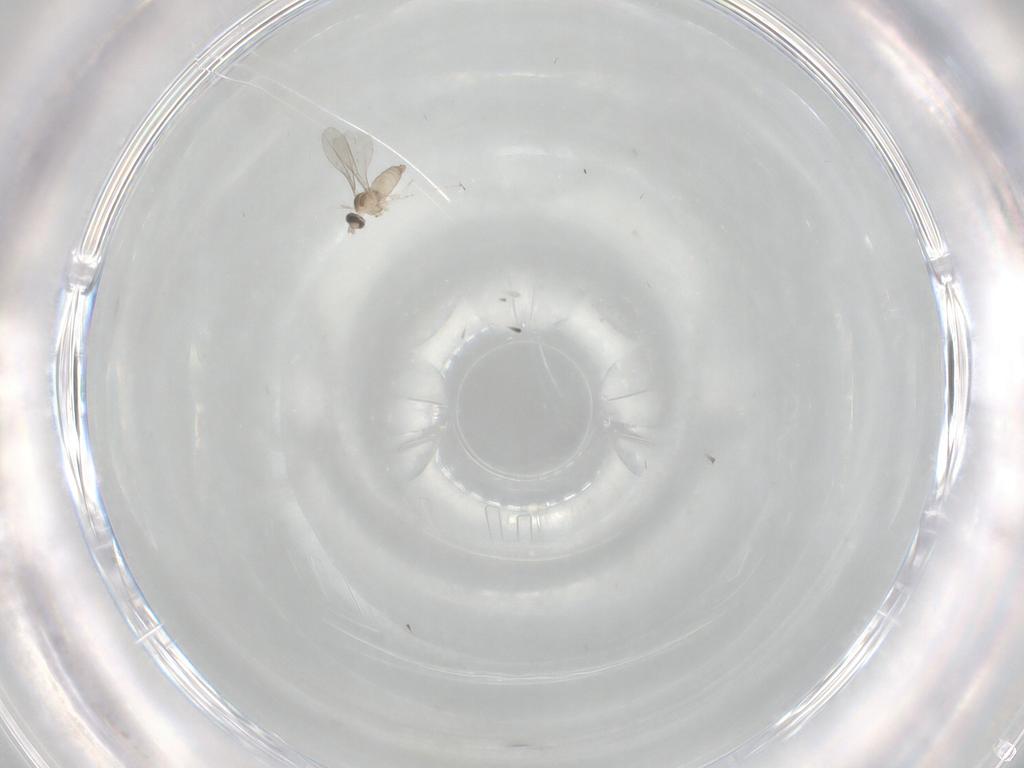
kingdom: Animalia
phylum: Arthropoda
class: Insecta
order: Diptera
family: Cecidomyiidae
